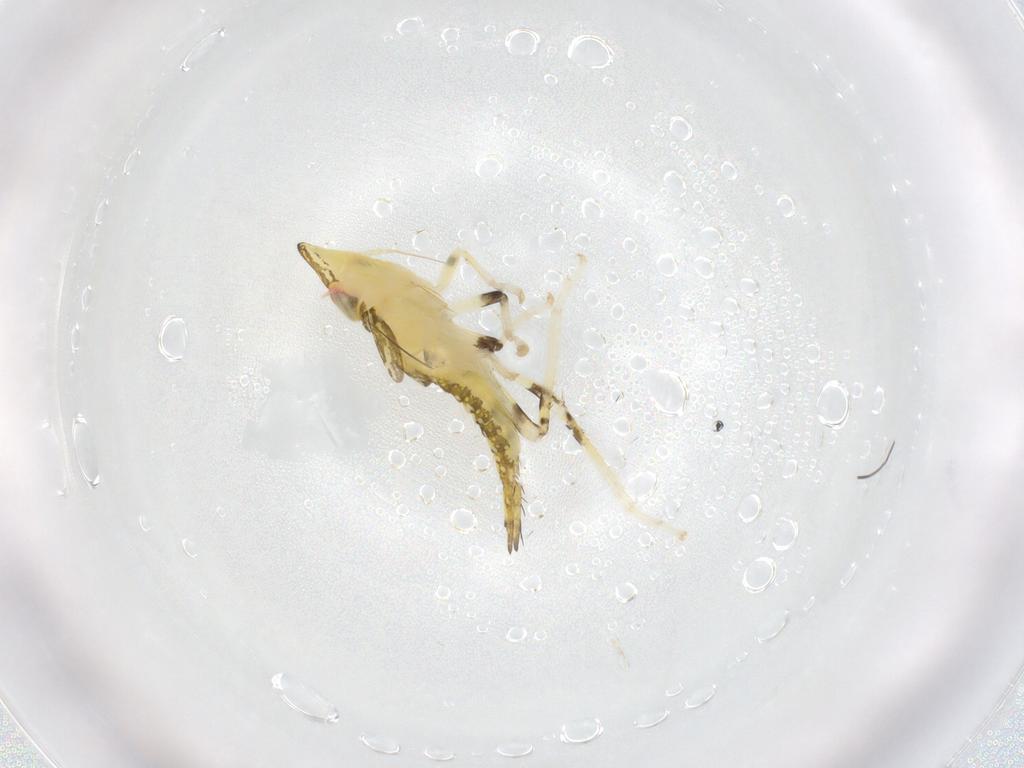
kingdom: Animalia
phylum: Arthropoda
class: Insecta
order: Hemiptera
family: Cicadellidae
